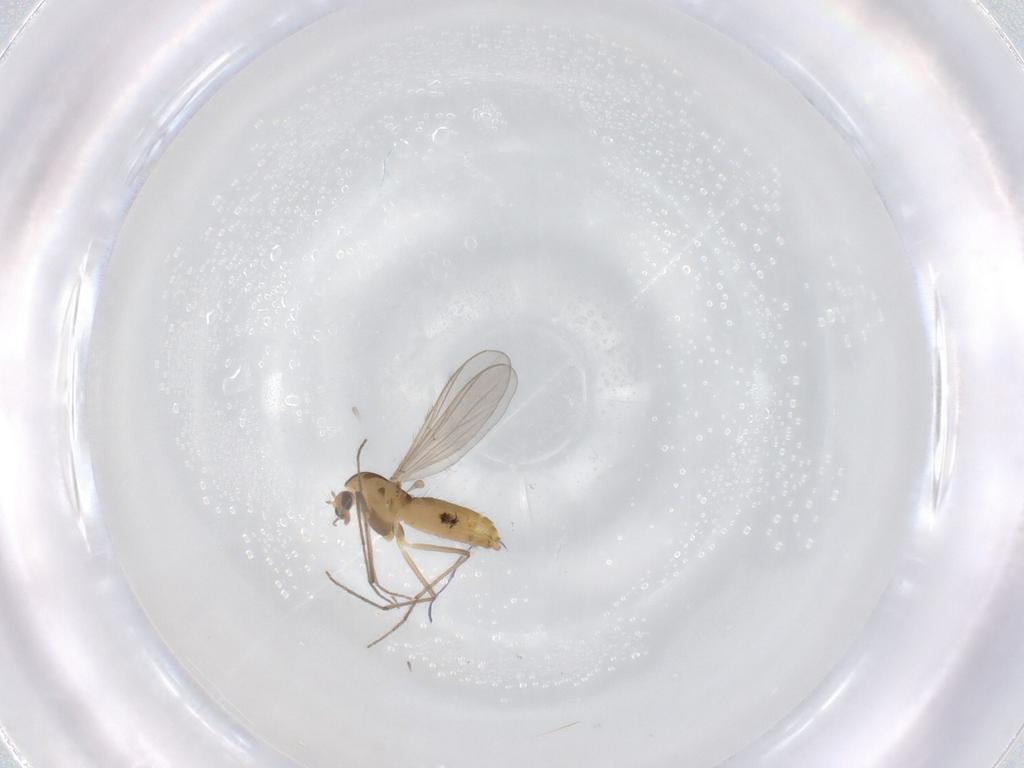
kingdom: Animalia
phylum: Arthropoda
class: Insecta
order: Diptera
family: Chironomidae
